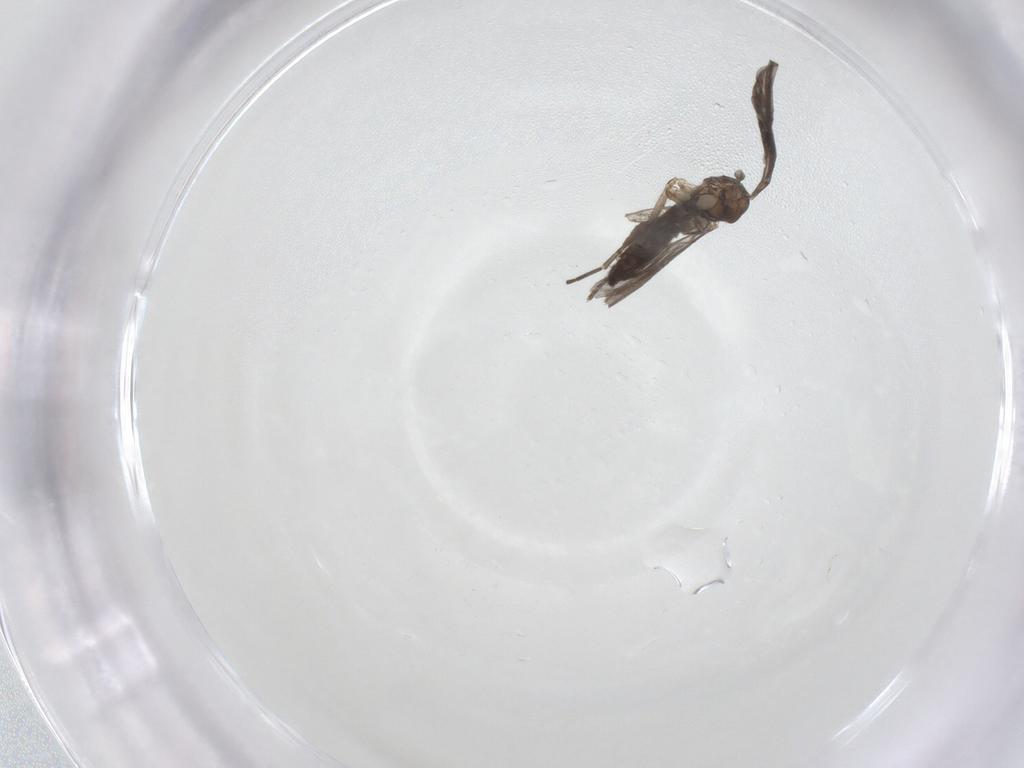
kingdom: Animalia
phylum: Arthropoda
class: Insecta
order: Diptera
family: Sciaridae
